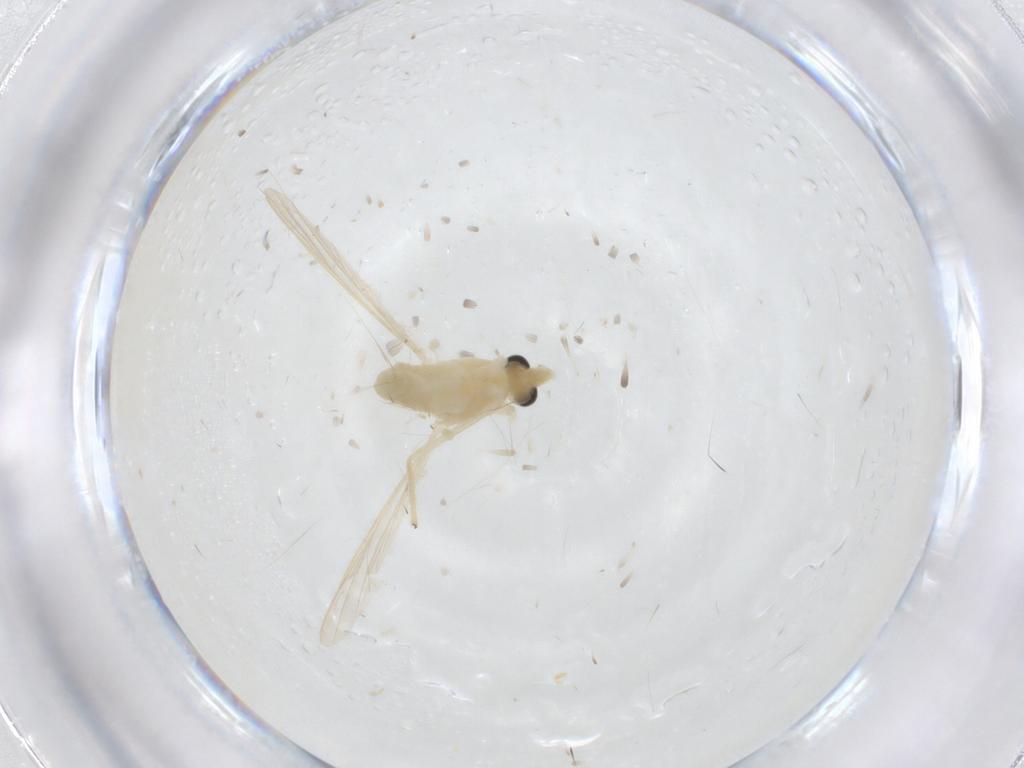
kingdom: Animalia
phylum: Arthropoda
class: Insecta
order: Diptera
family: Chironomidae
